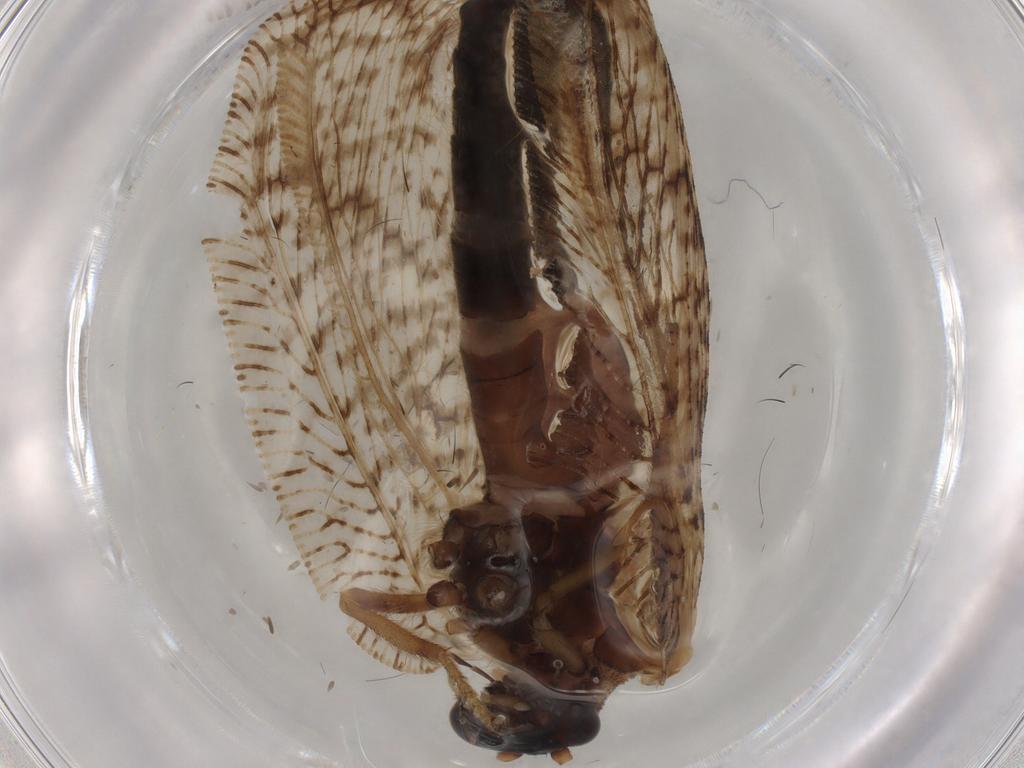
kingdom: Animalia
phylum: Arthropoda
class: Insecta
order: Neuroptera
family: Hemerobiidae
